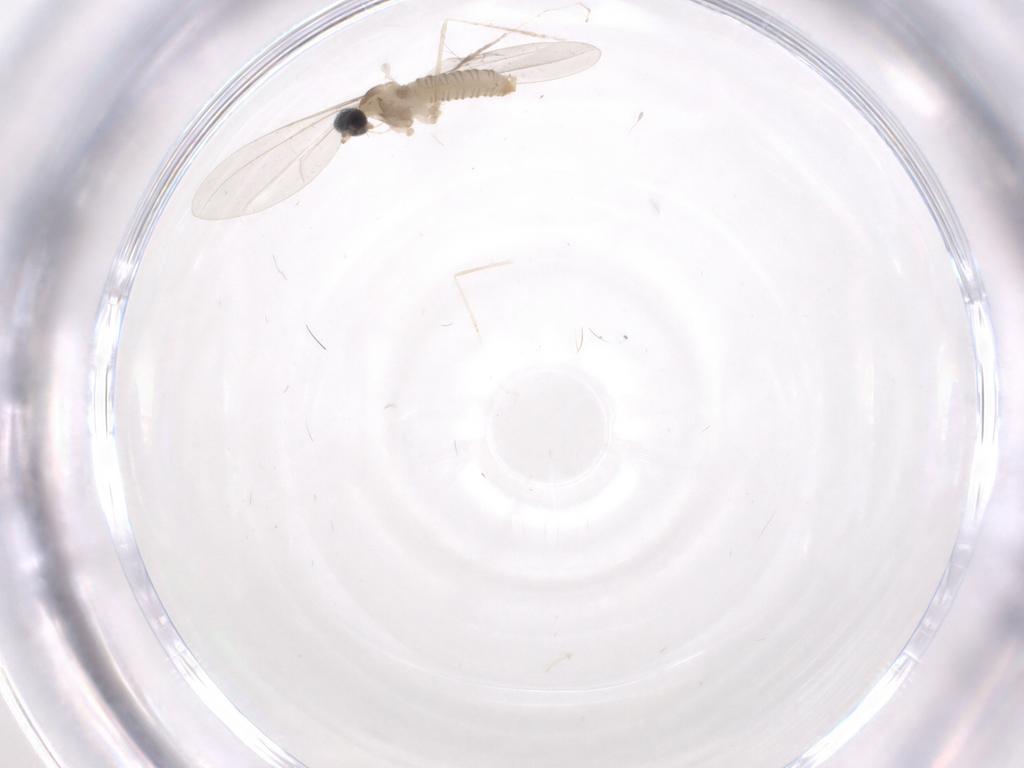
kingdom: Animalia
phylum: Arthropoda
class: Insecta
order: Diptera
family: Cecidomyiidae
